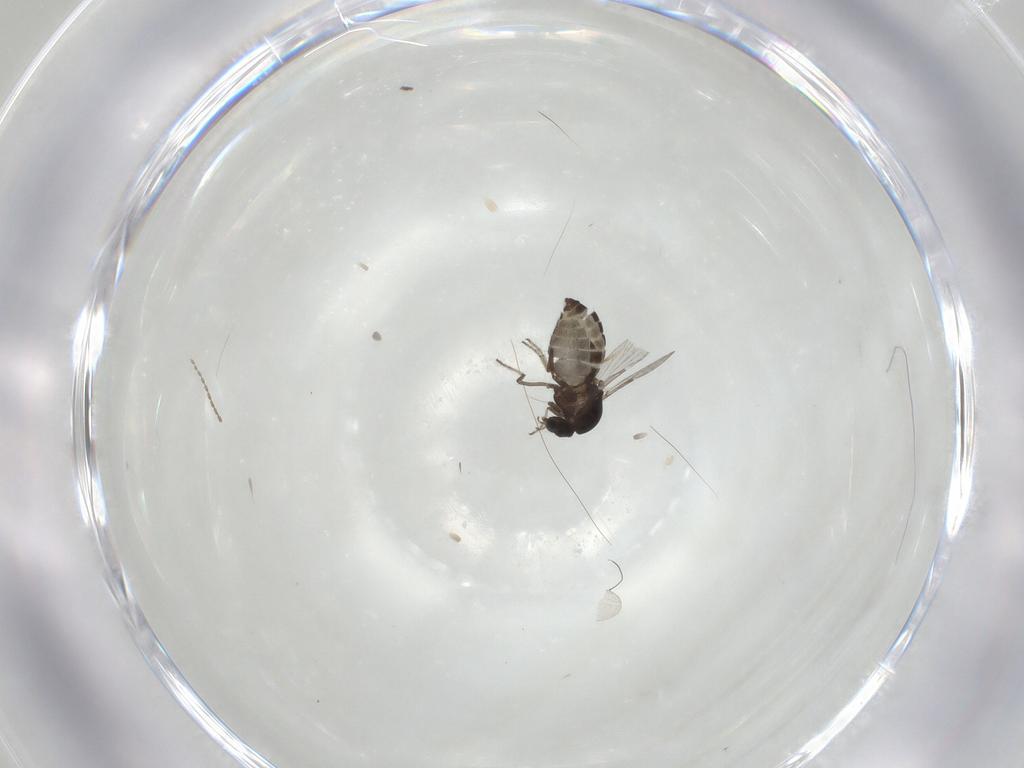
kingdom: Animalia
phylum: Arthropoda
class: Insecta
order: Diptera
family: Ceratopogonidae
